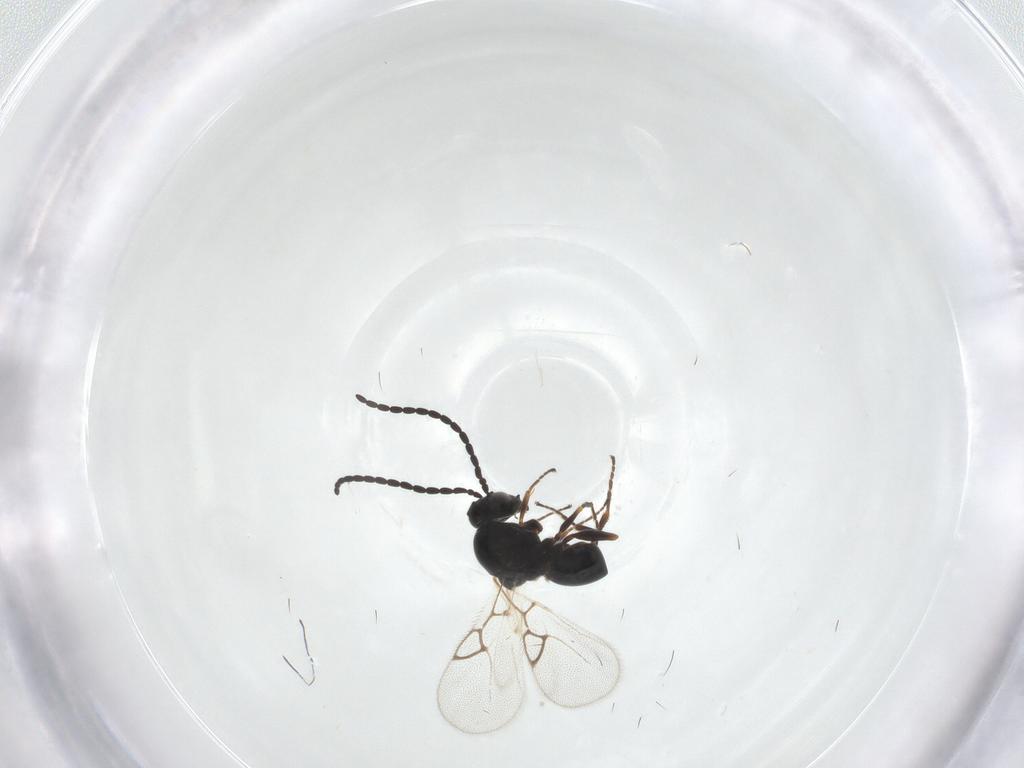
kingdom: Animalia
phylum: Arthropoda
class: Insecta
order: Hymenoptera
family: Figitidae
